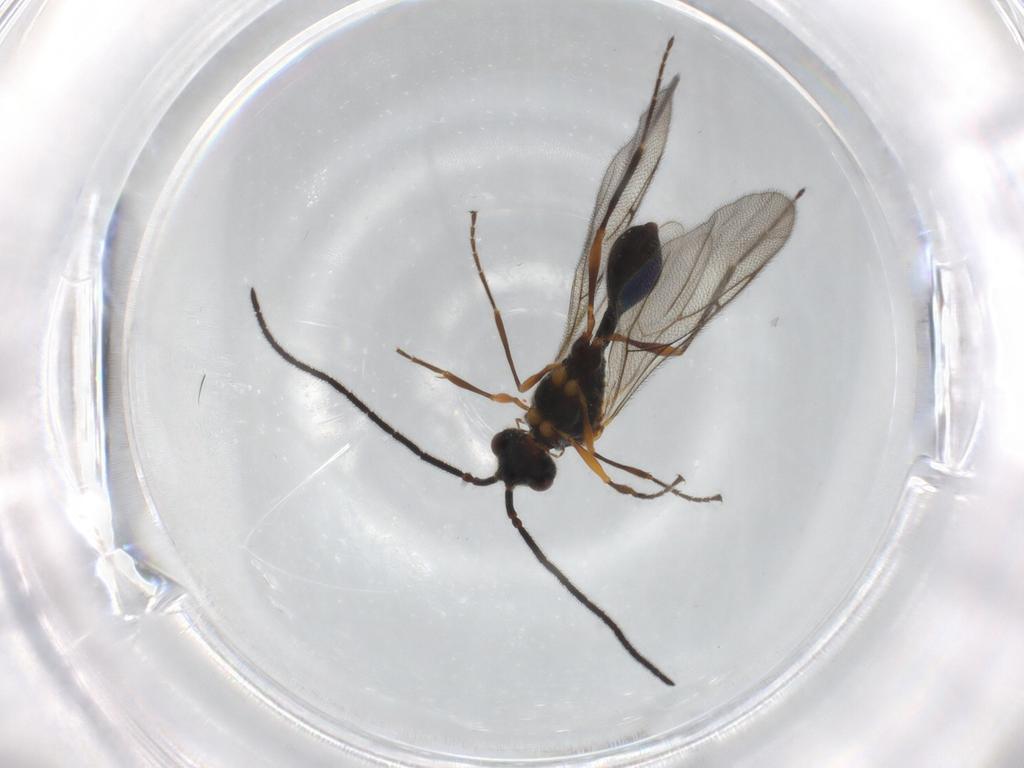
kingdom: Animalia
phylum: Arthropoda
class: Insecta
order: Hymenoptera
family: Diapriidae
